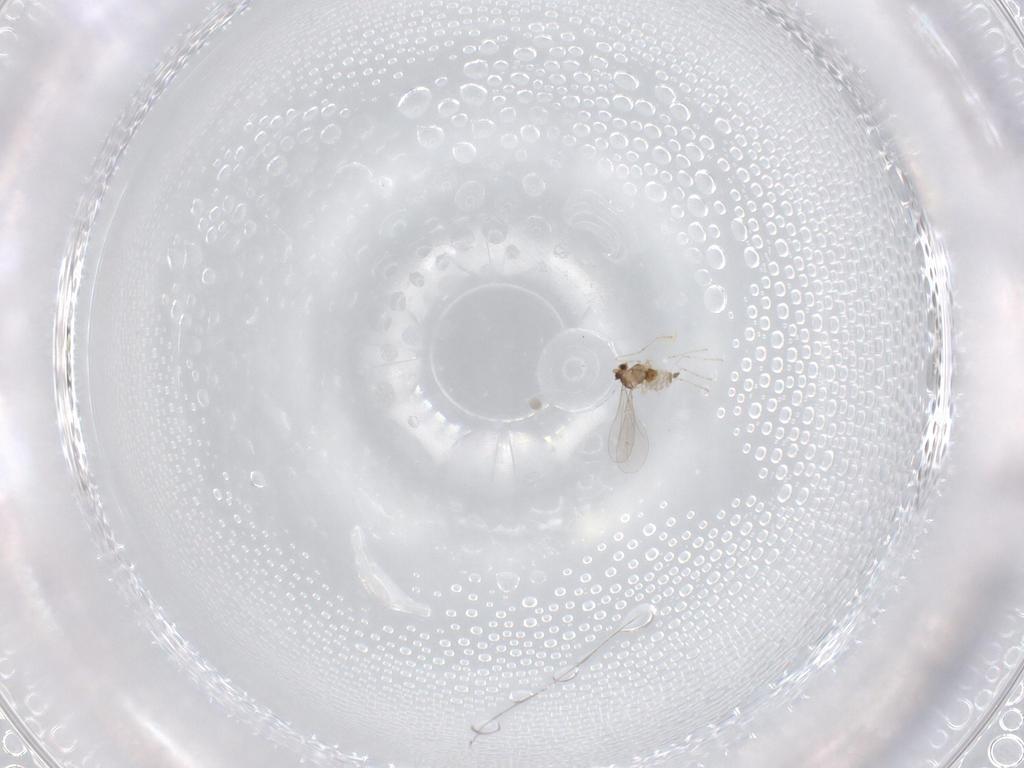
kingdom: Animalia
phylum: Arthropoda
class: Insecta
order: Diptera
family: Cecidomyiidae
